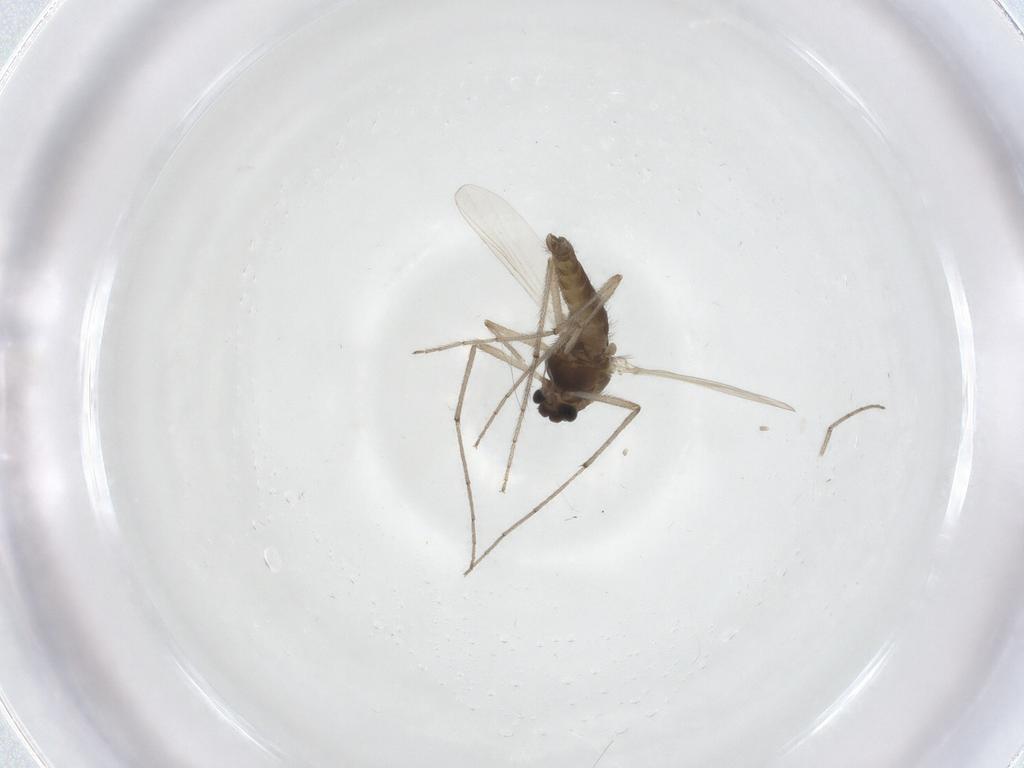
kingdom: Animalia
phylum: Arthropoda
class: Insecta
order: Diptera
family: Chironomidae
